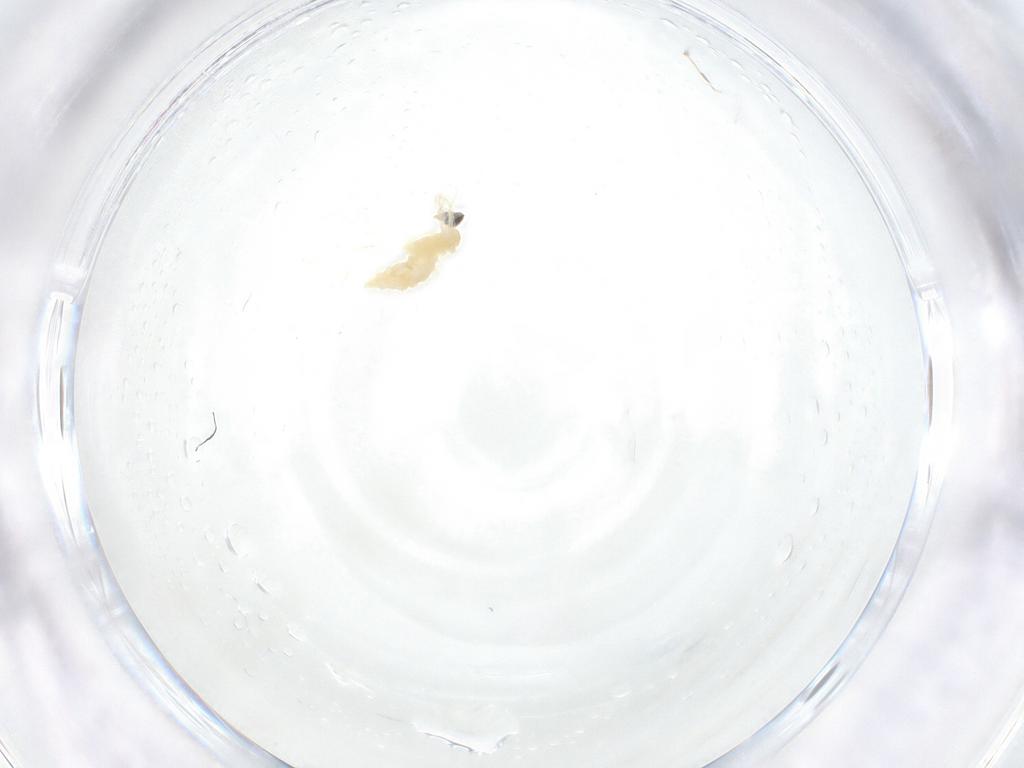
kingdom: Animalia
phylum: Arthropoda
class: Insecta
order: Diptera
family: Cecidomyiidae
